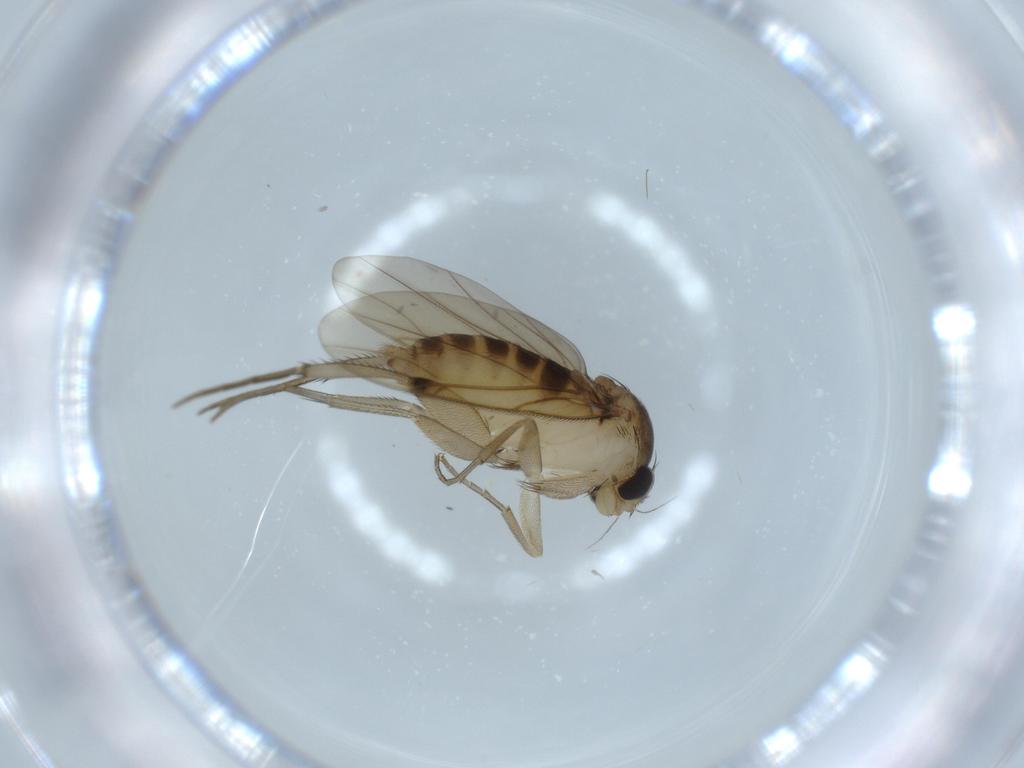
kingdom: Animalia
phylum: Arthropoda
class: Insecta
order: Diptera
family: Phoridae
